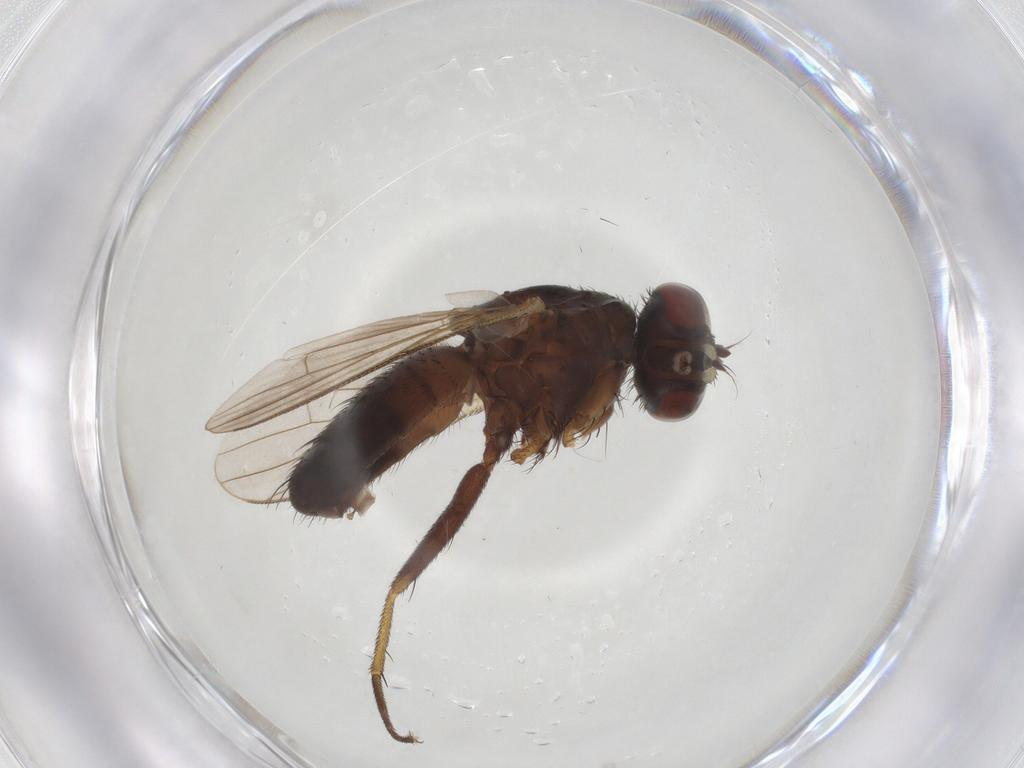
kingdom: Animalia
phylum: Arthropoda
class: Insecta
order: Diptera
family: Muscidae
